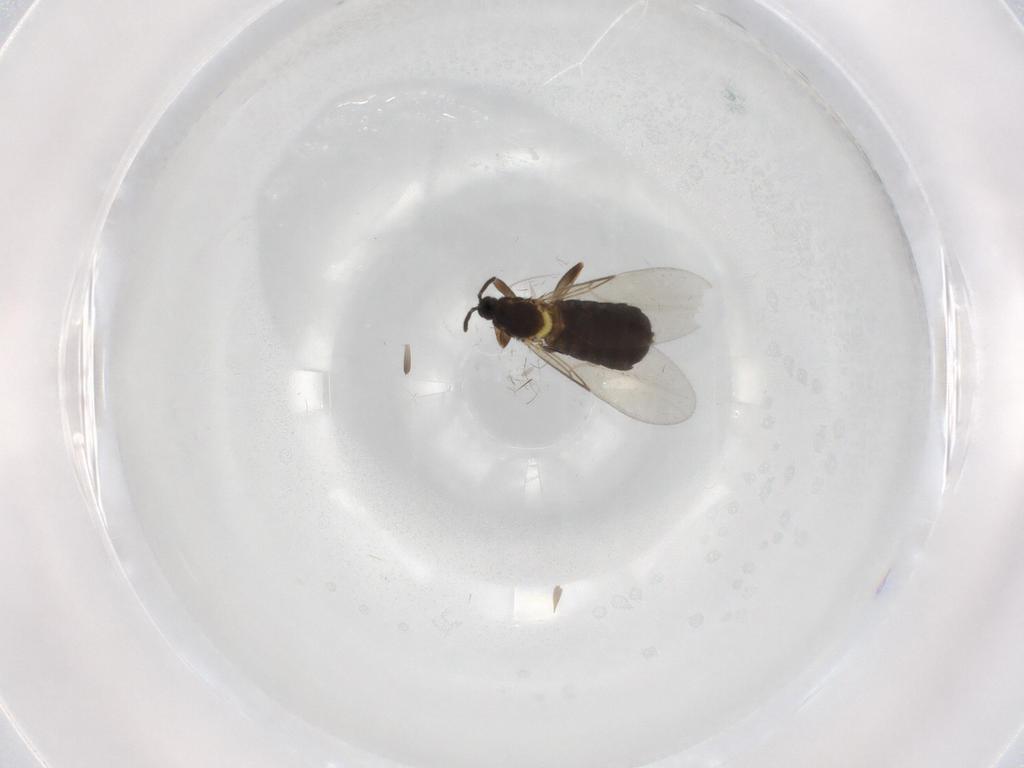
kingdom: Animalia
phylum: Arthropoda
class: Insecta
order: Diptera
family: Scatopsidae
